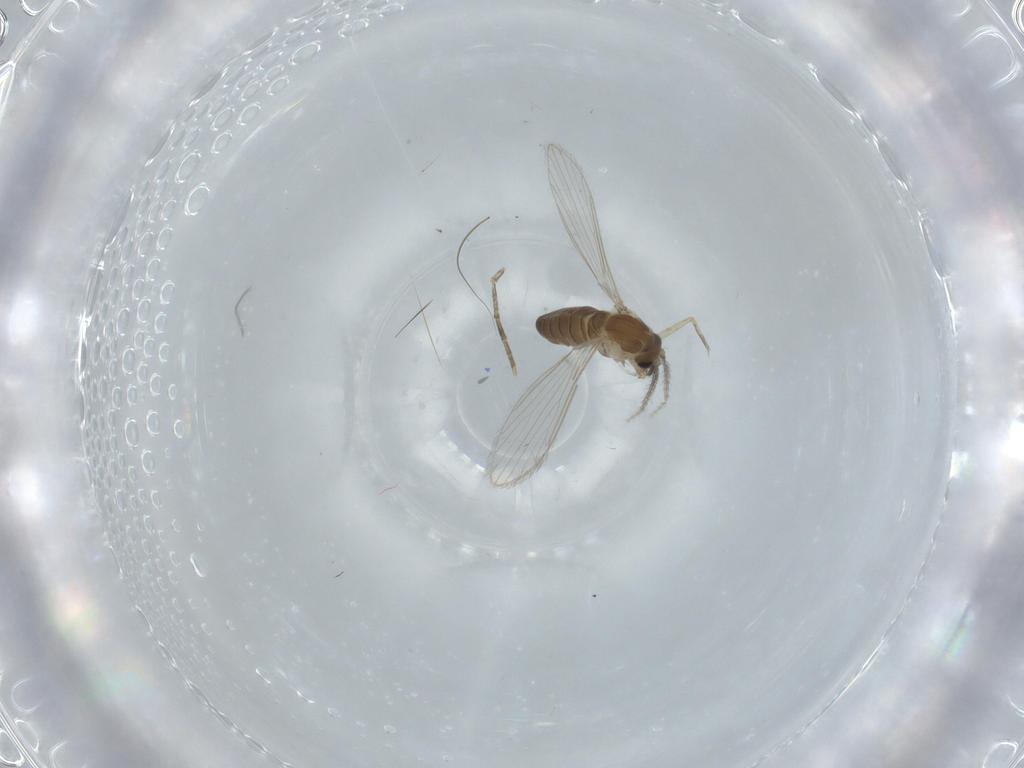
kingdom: Animalia
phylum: Arthropoda
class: Insecta
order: Diptera
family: Psychodidae
